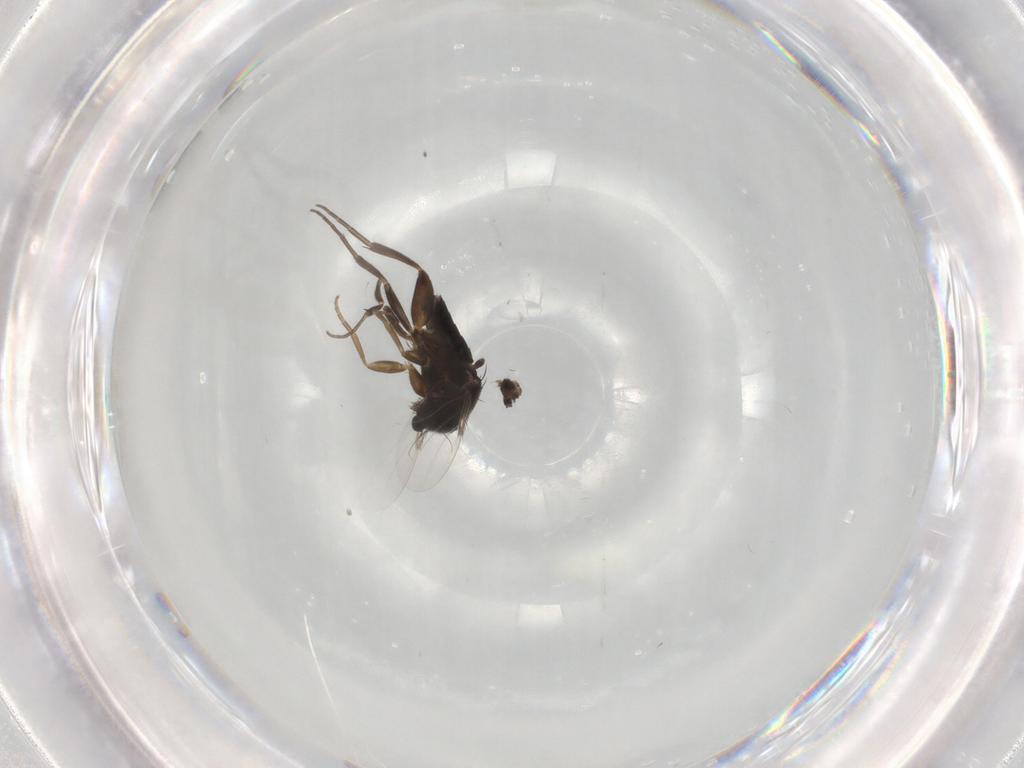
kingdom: Animalia
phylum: Arthropoda
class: Insecta
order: Diptera
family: Phoridae
